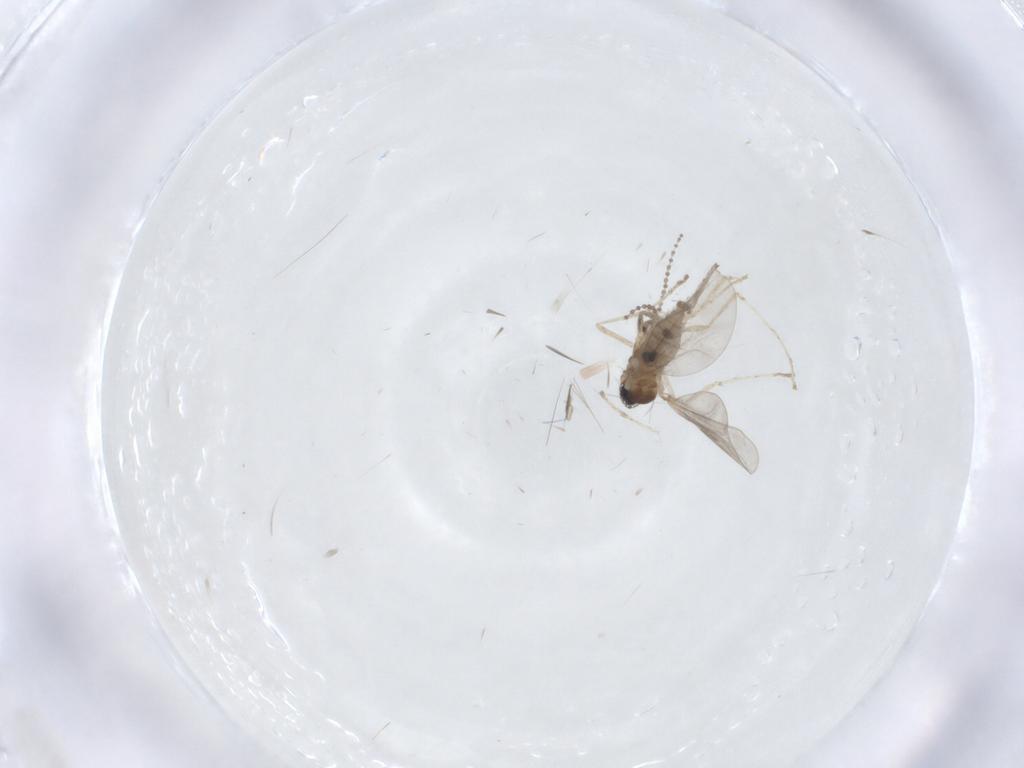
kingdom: Animalia
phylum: Arthropoda
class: Insecta
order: Diptera
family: Cecidomyiidae
